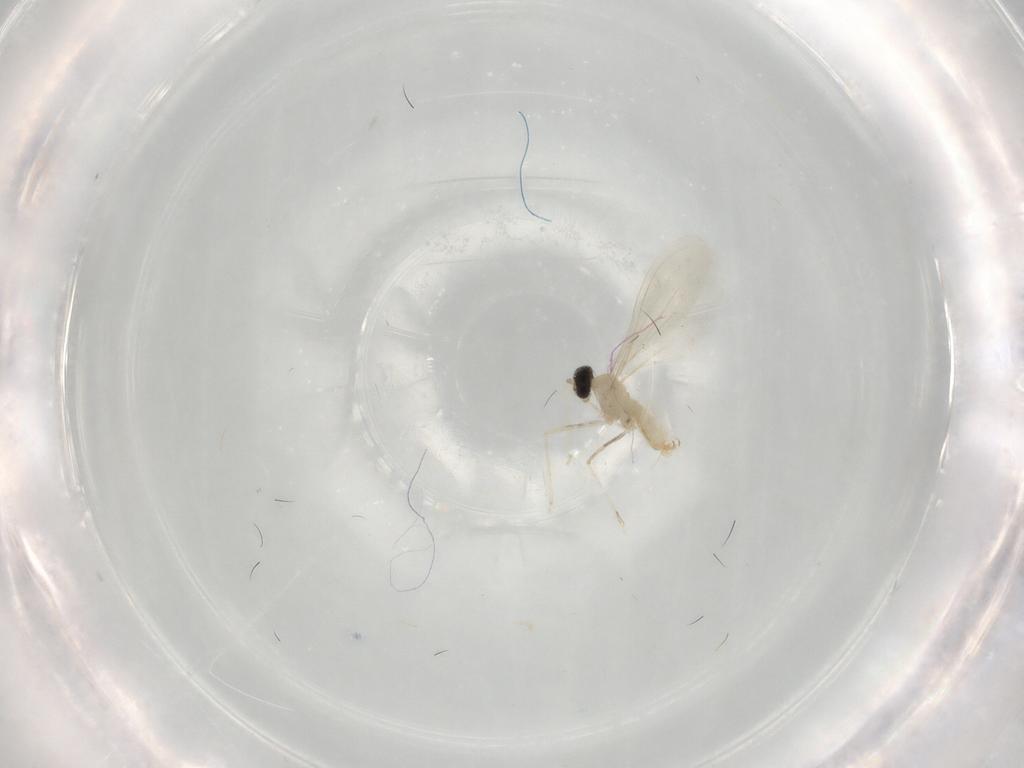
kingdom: Animalia
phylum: Arthropoda
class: Insecta
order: Diptera
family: Cecidomyiidae
